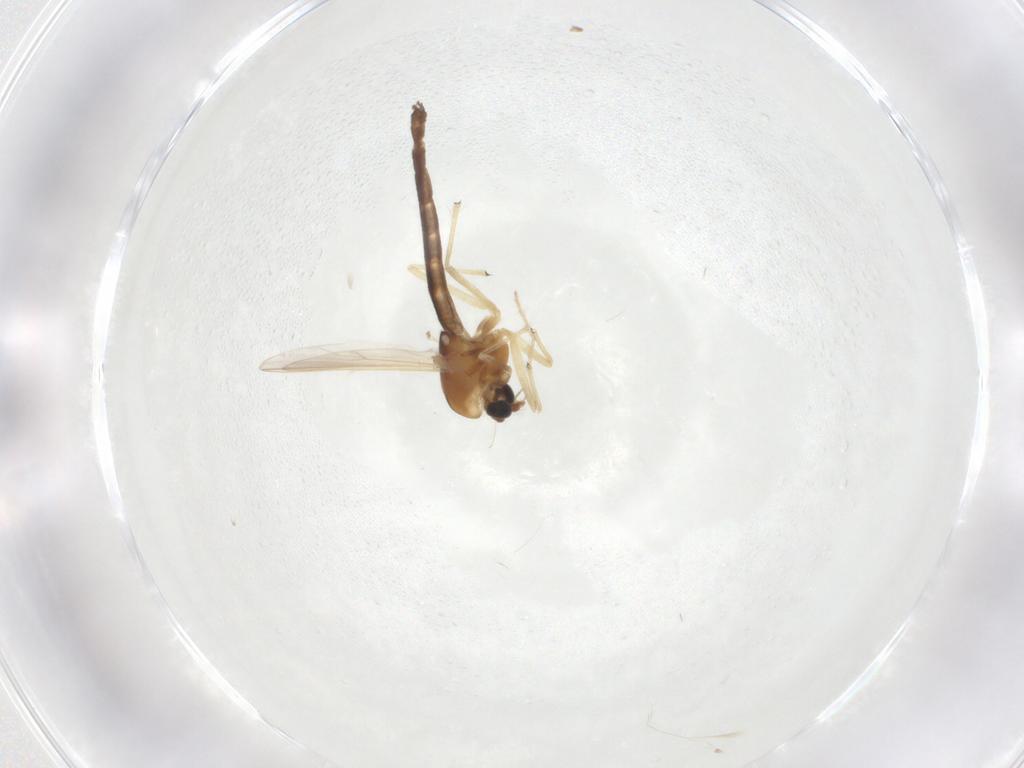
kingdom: Animalia
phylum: Arthropoda
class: Insecta
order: Diptera
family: Chironomidae
